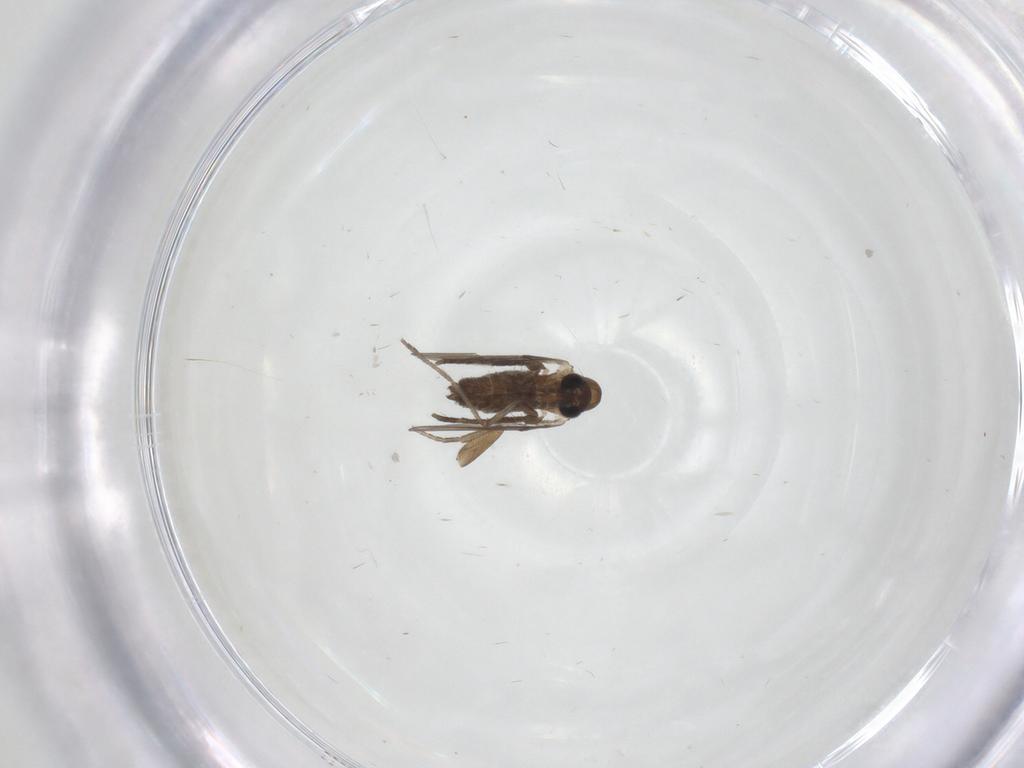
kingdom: Animalia
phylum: Arthropoda
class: Insecta
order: Diptera
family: Psychodidae
